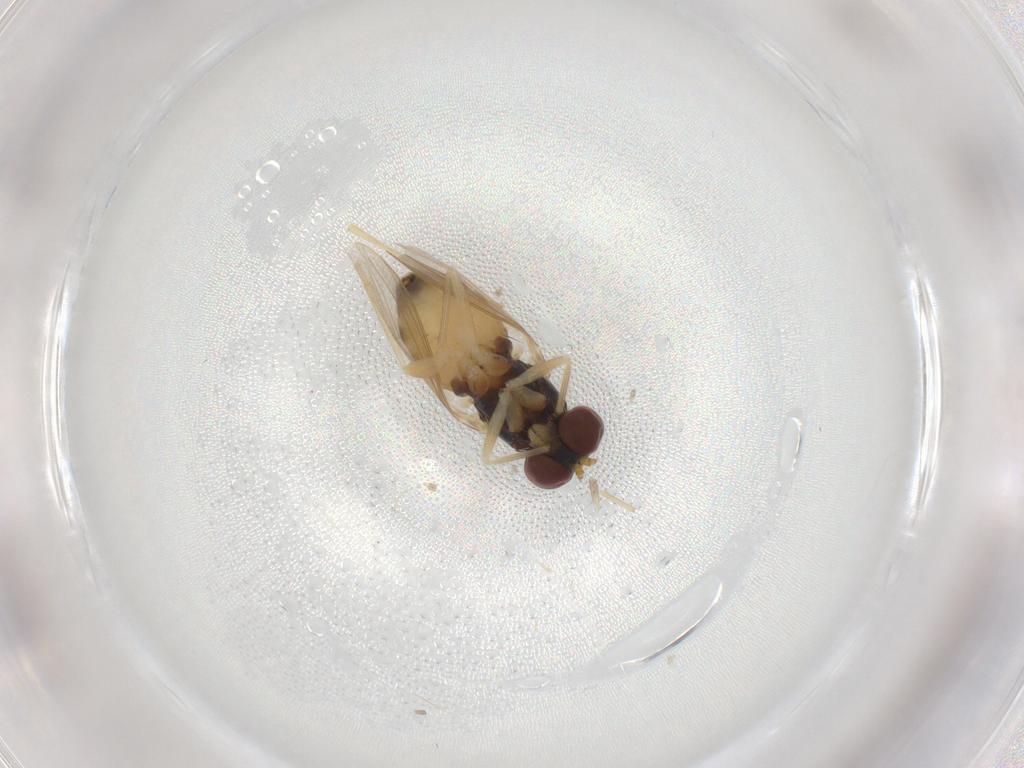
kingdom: Animalia
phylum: Arthropoda
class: Insecta
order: Diptera
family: Dolichopodidae
